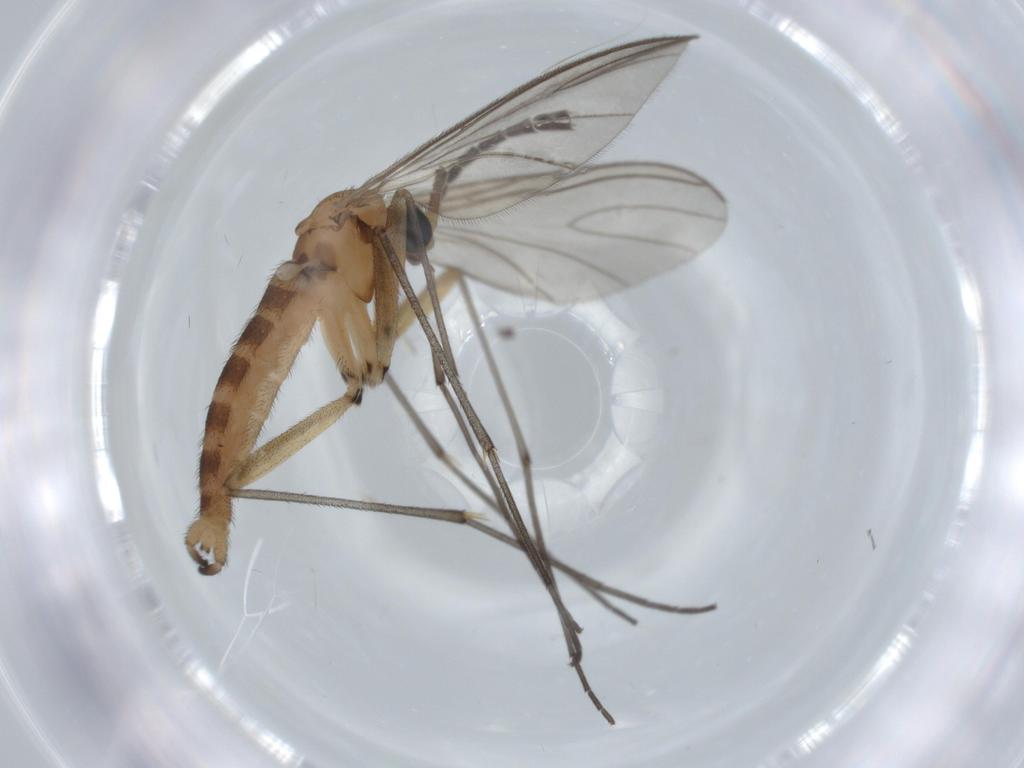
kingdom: Animalia
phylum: Arthropoda
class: Insecta
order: Diptera
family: Sciaridae
